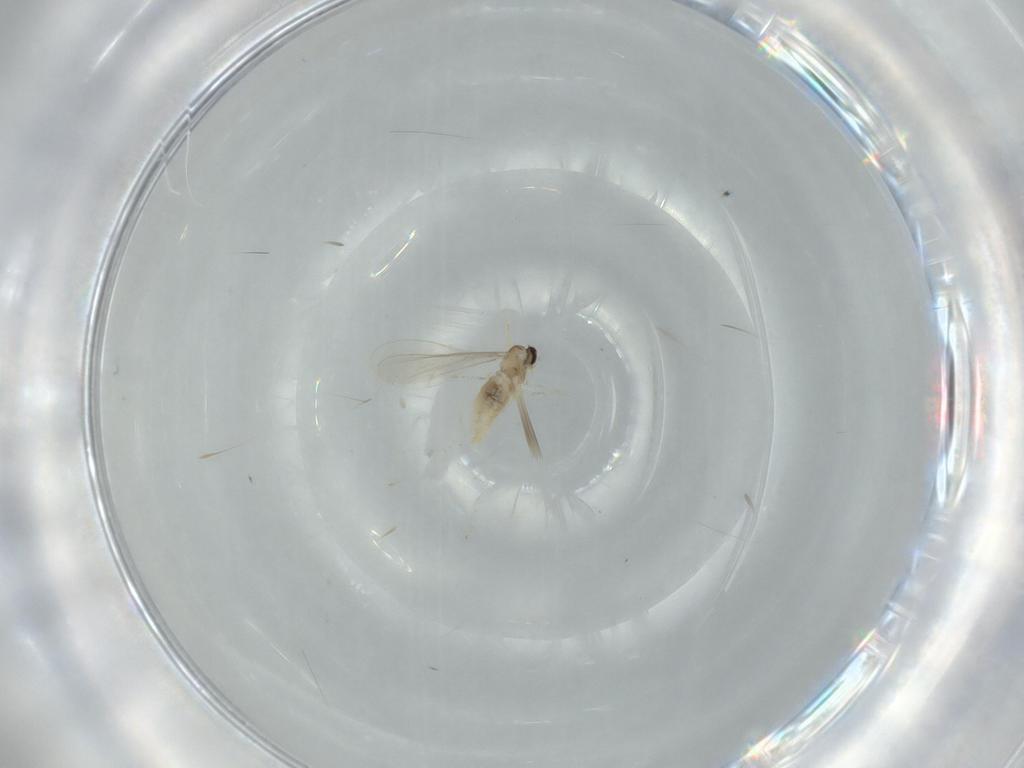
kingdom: Animalia
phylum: Arthropoda
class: Insecta
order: Diptera
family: Cecidomyiidae
